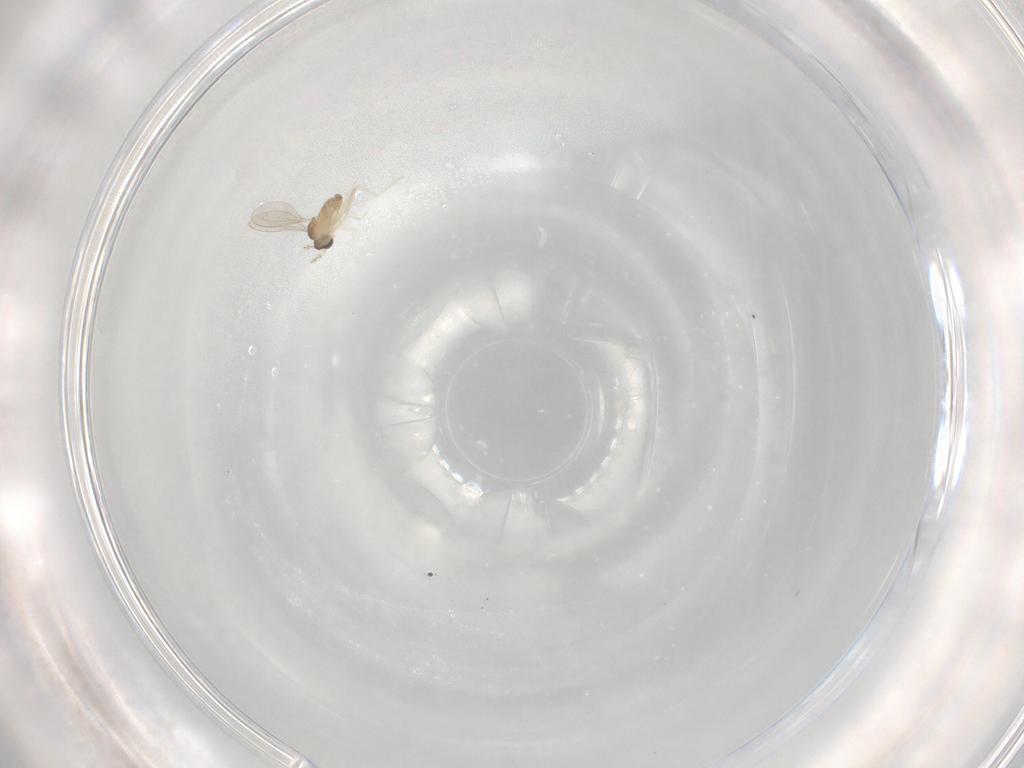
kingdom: Animalia
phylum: Arthropoda
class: Insecta
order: Diptera
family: Cecidomyiidae
